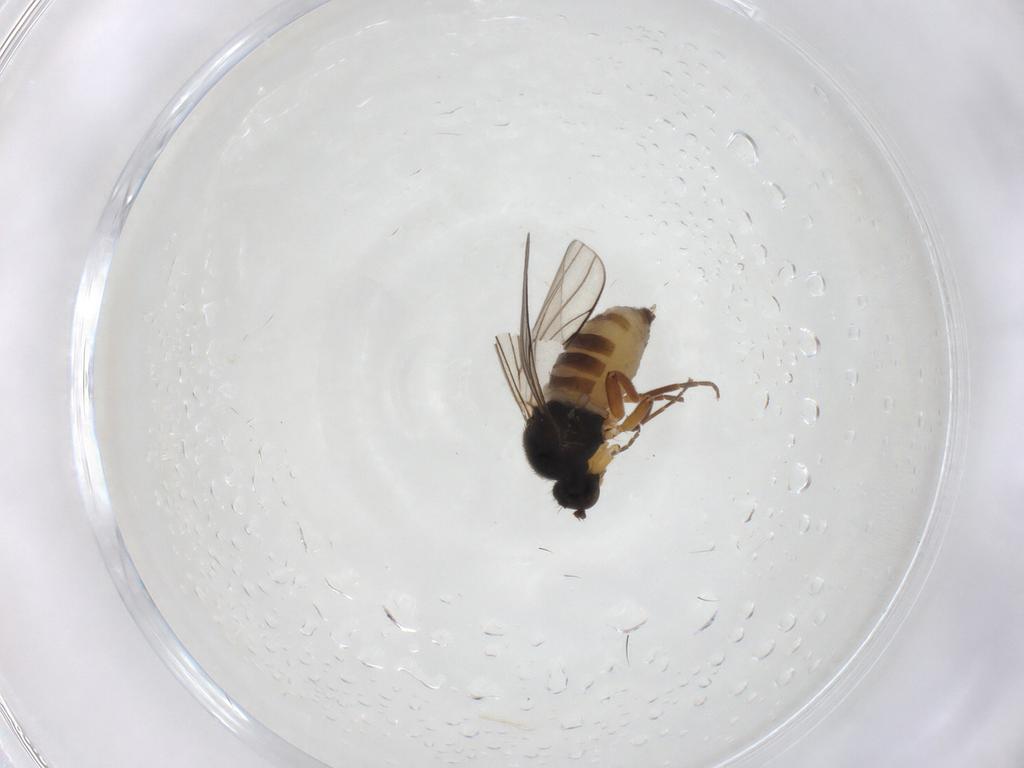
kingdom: Animalia
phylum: Arthropoda
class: Insecta
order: Diptera
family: Hybotidae
